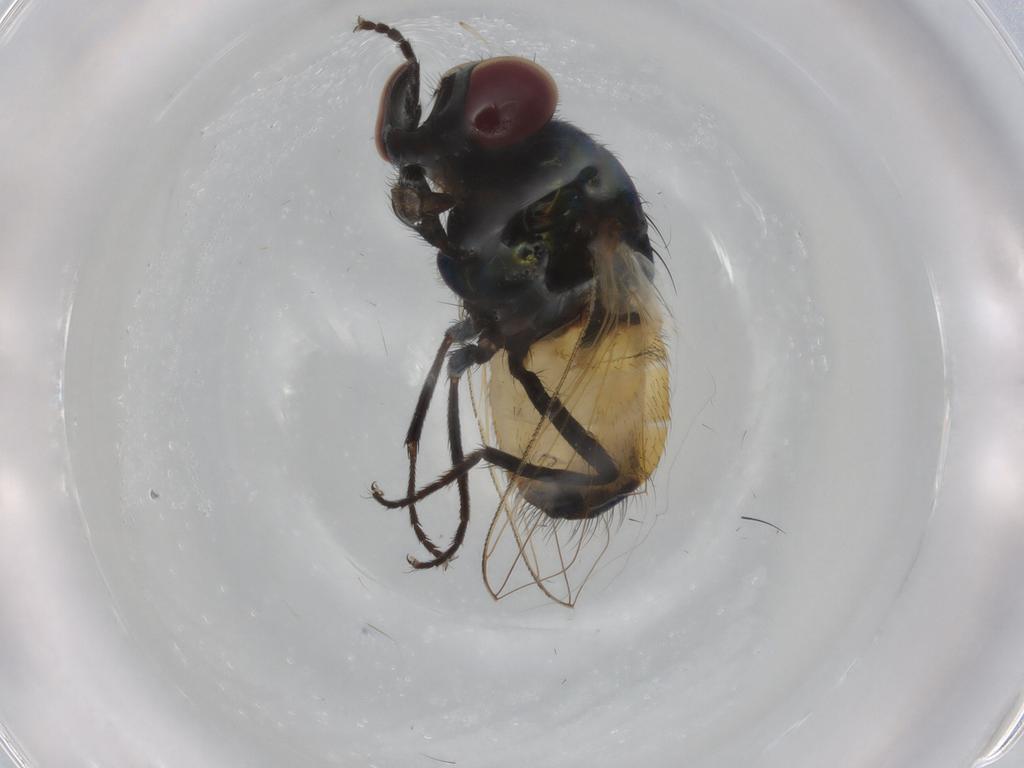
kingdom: Animalia
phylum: Arthropoda
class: Insecta
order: Diptera
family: Muscidae
